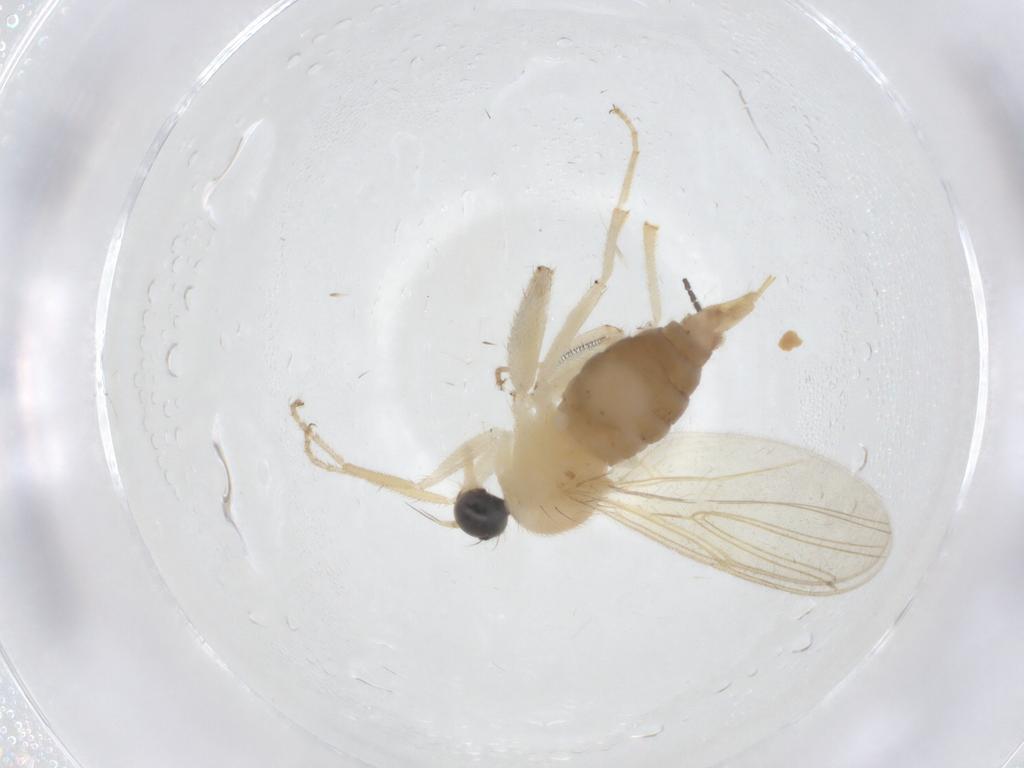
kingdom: Animalia
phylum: Arthropoda
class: Insecta
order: Diptera
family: Hybotidae
